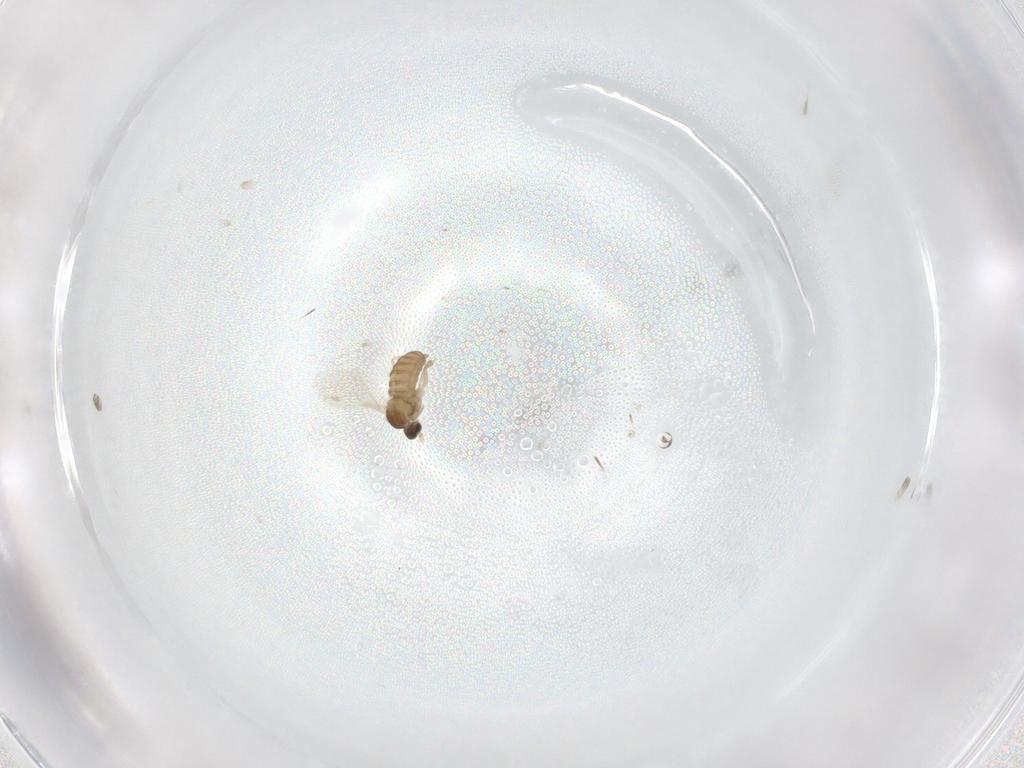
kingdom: Animalia
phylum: Arthropoda
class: Insecta
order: Diptera
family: Cecidomyiidae
